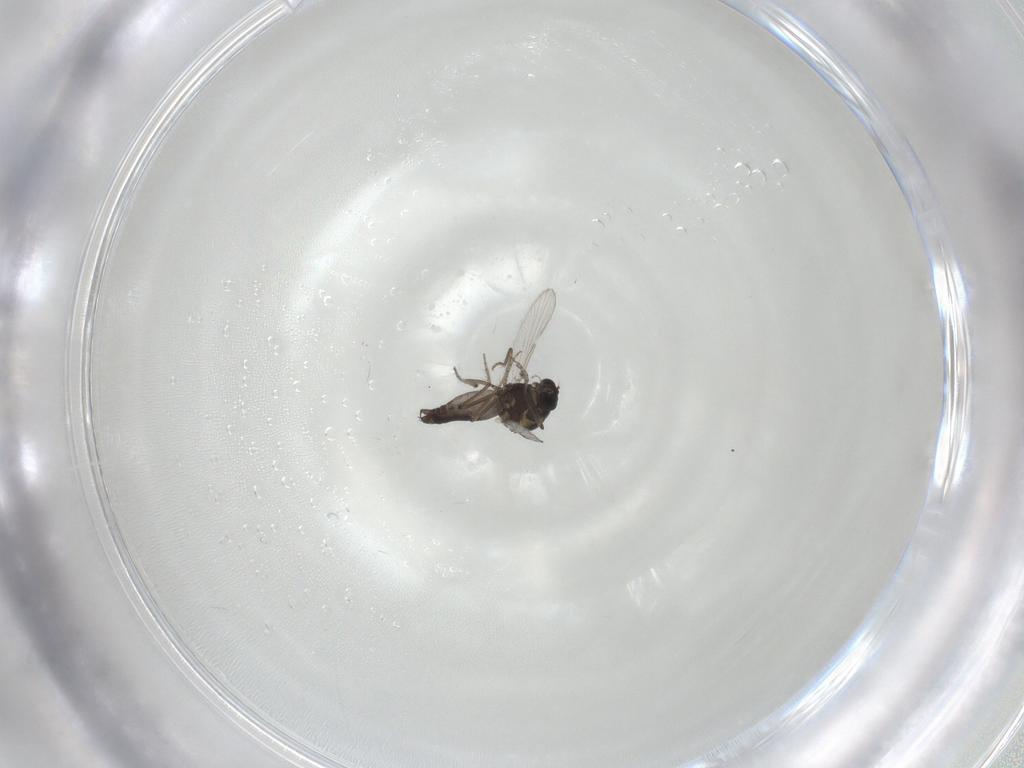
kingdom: Animalia
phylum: Arthropoda
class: Insecta
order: Diptera
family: Ceratopogonidae
